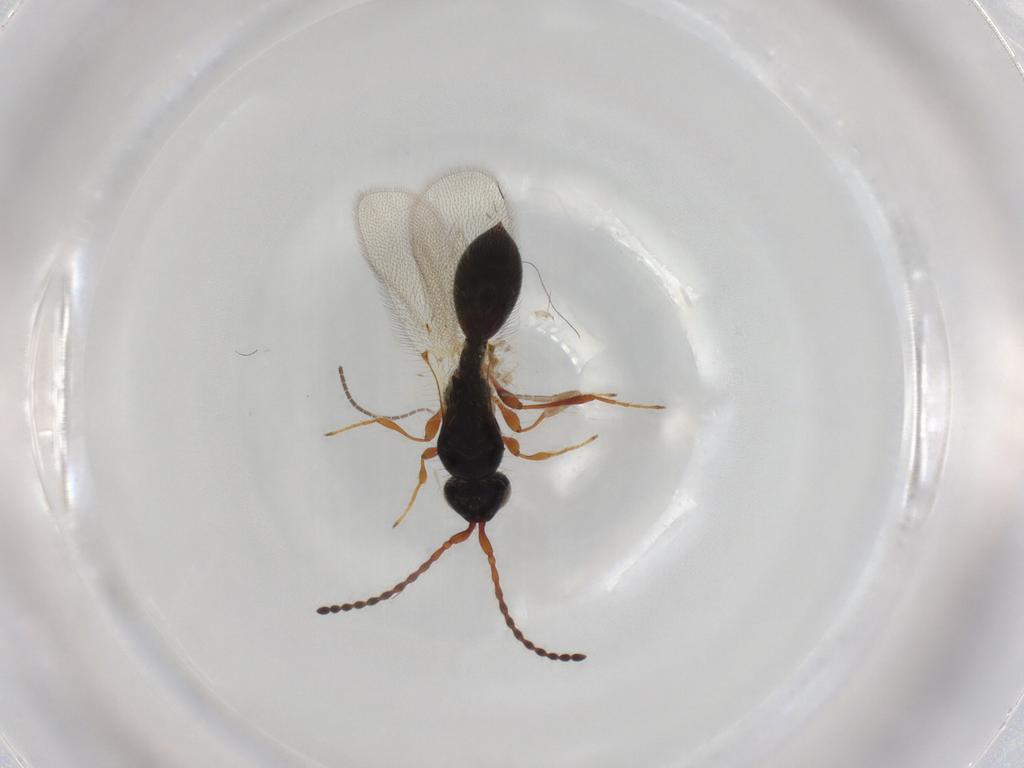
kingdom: Animalia
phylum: Arthropoda
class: Insecta
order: Hymenoptera
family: Diapriidae
